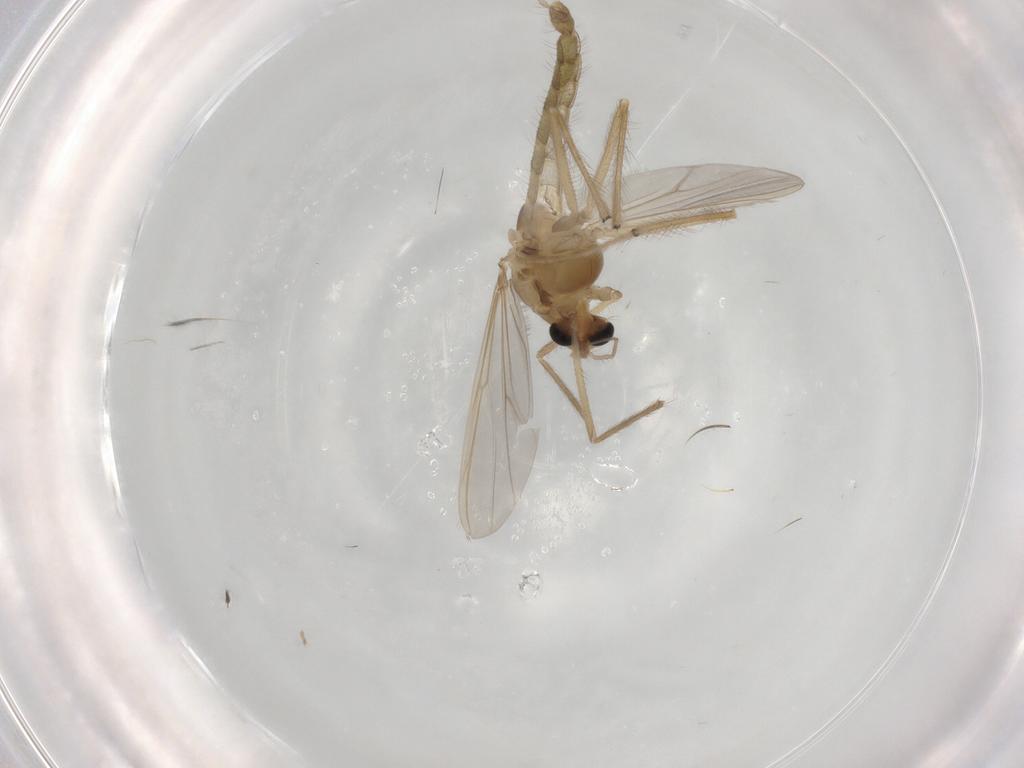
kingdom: Animalia
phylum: Arthropoda
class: Insecta
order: Diptera
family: Chironomidae
